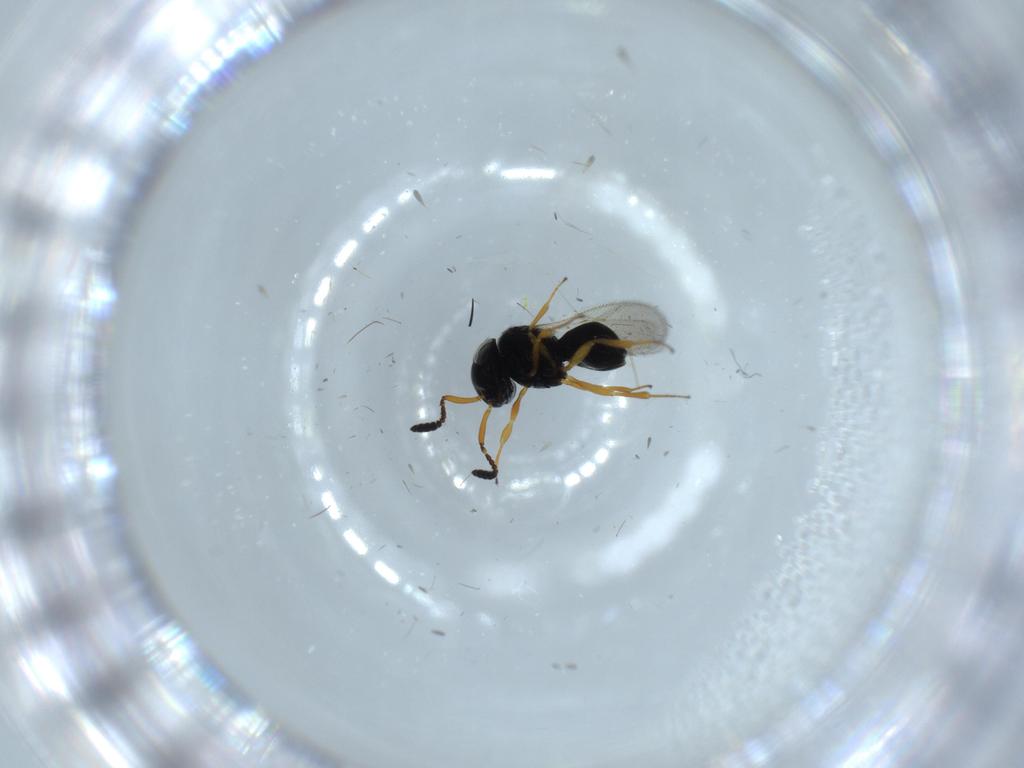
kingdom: Animalia
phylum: Arthropoda
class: Insecta
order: Hymenoptera
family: Scelionidae
